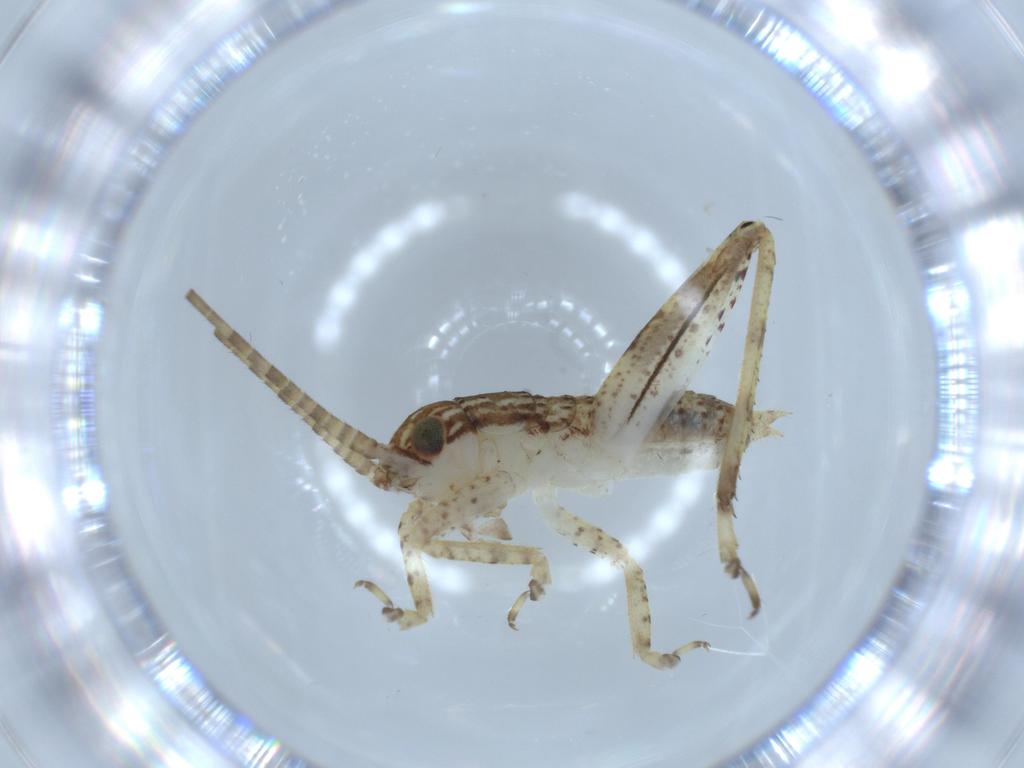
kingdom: Animalia
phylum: Arthropoda
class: Insecta
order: Orthoptera
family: Gryllidae
